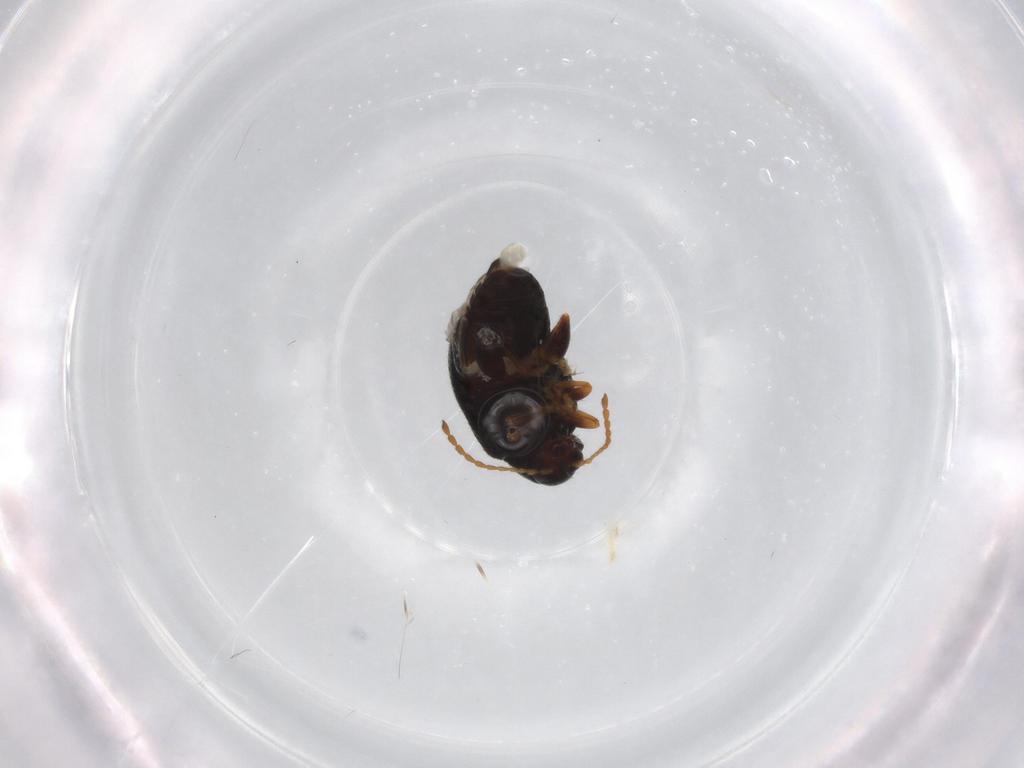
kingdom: Animalia
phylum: Arthropoda
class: Insecta
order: Coleoptera
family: Chrysomelidae
